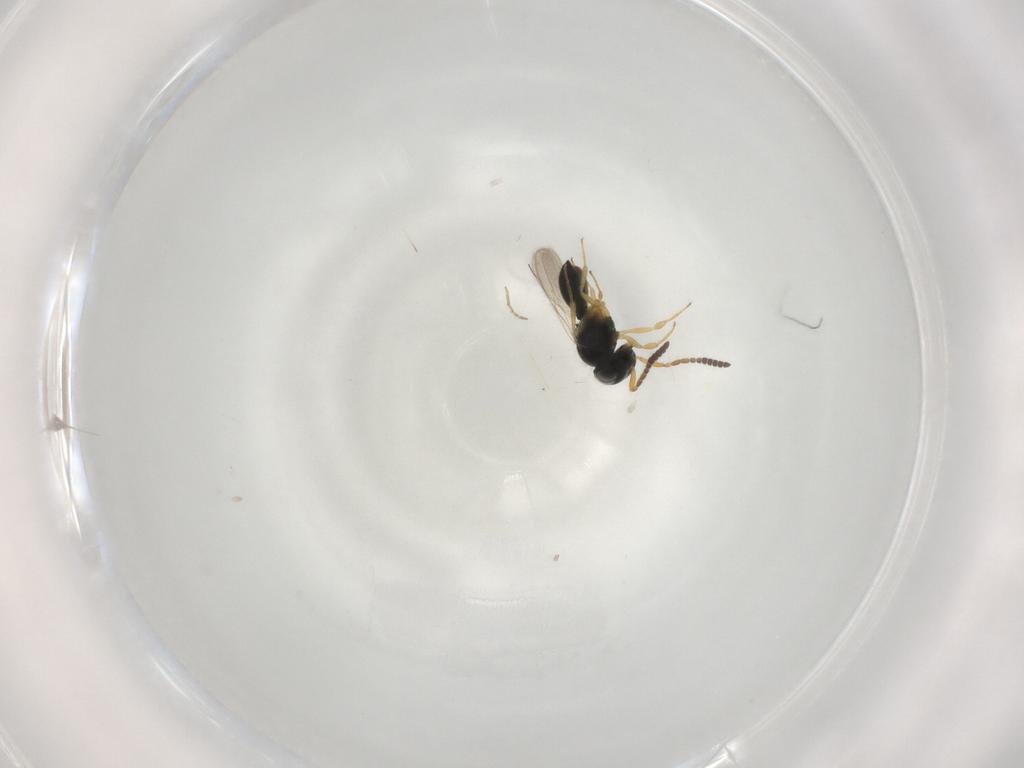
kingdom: Animalia
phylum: Arthropoda
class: Insecta
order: Hymenoptera
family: Scelionidae
